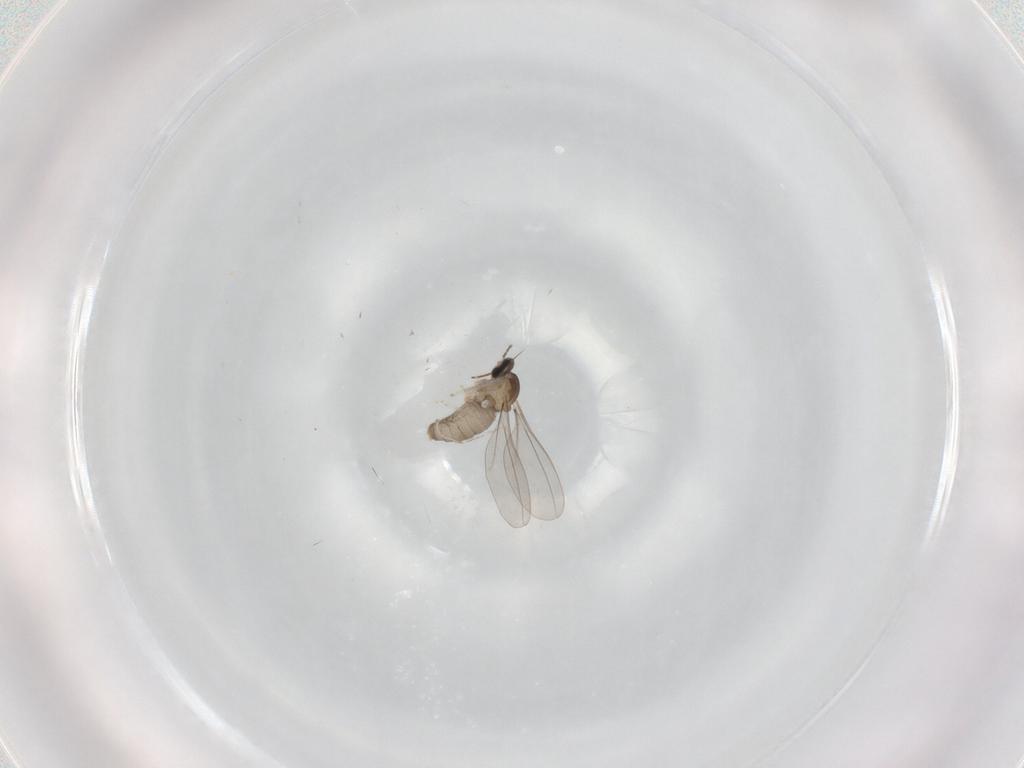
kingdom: Animalia
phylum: Arthropoda
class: Insecta
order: Diptera
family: Cecidomyiidae
